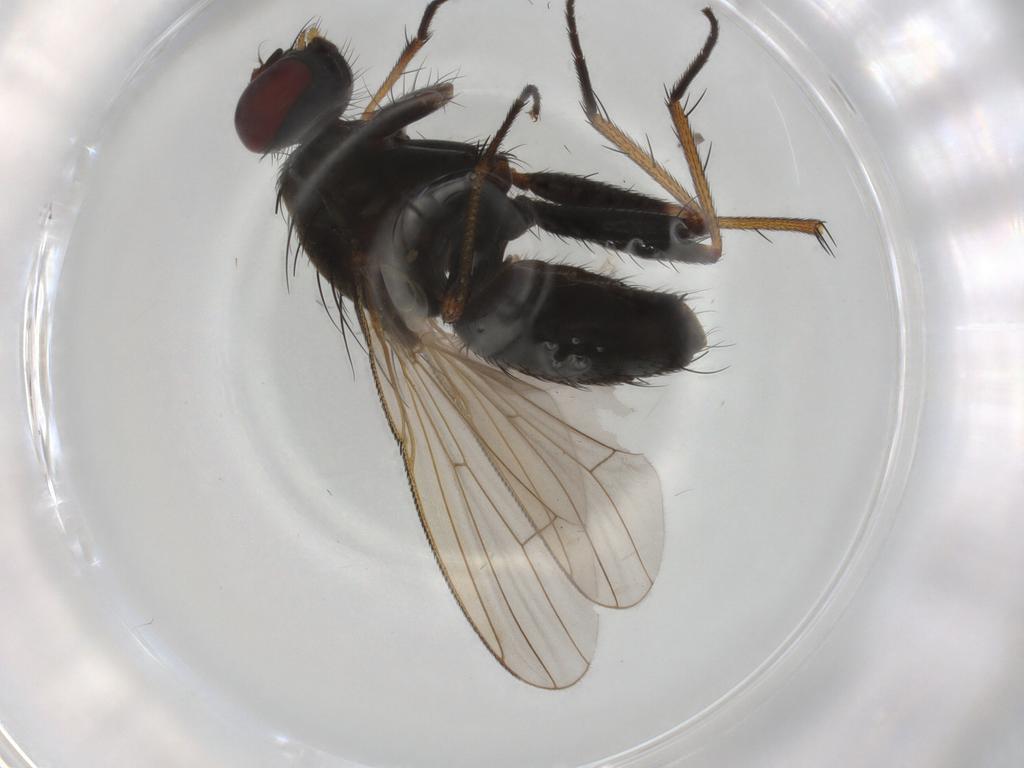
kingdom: Animalia
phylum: Arthropoda
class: Insecta
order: Diptera
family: Muscidae
